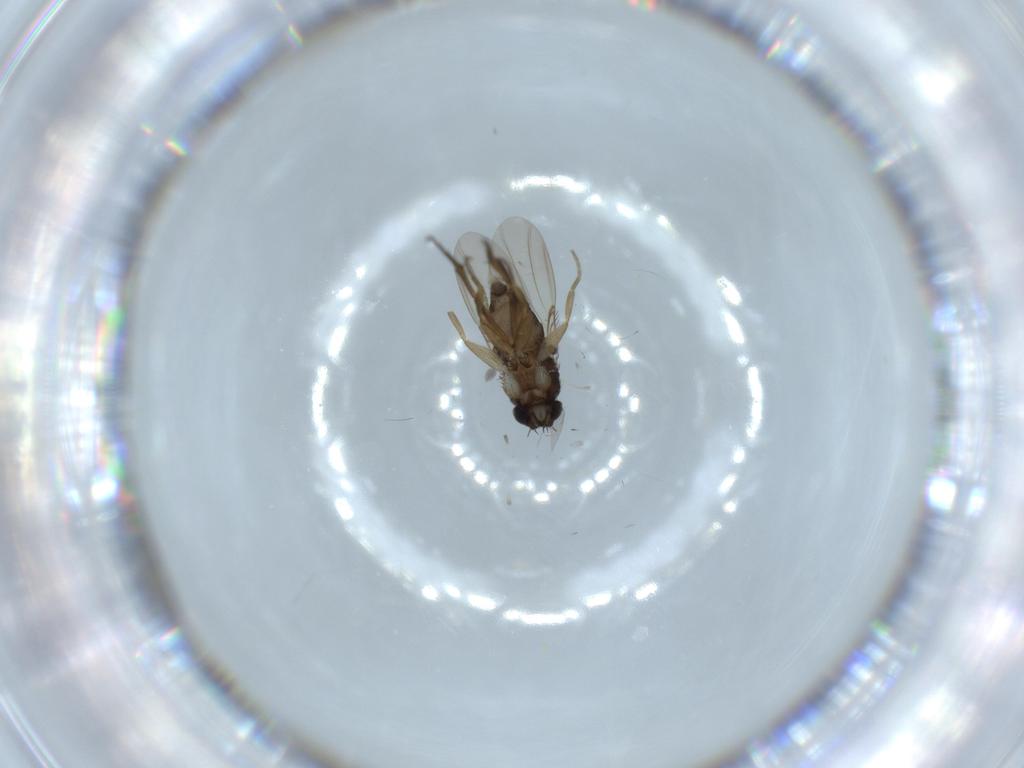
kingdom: Animalia
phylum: Arthropoda
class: Insecta
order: Diptera
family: Phoridae
